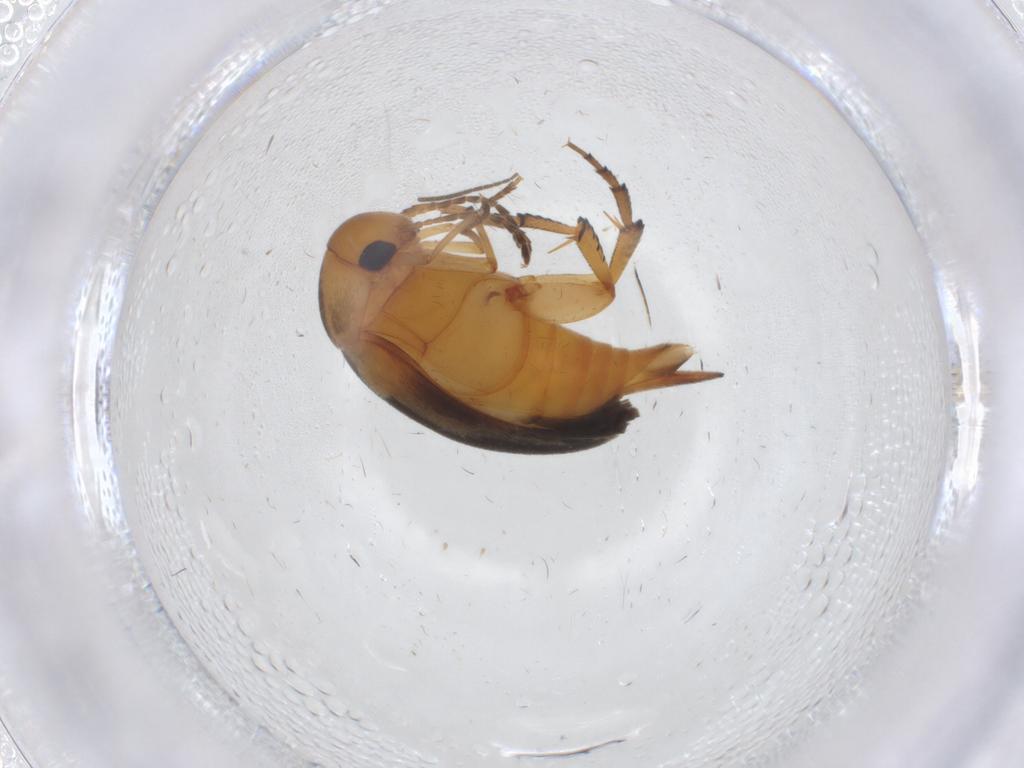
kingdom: Animalia
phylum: Arthropoda
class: Insecta
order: Coleoptera
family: Mordellidae
